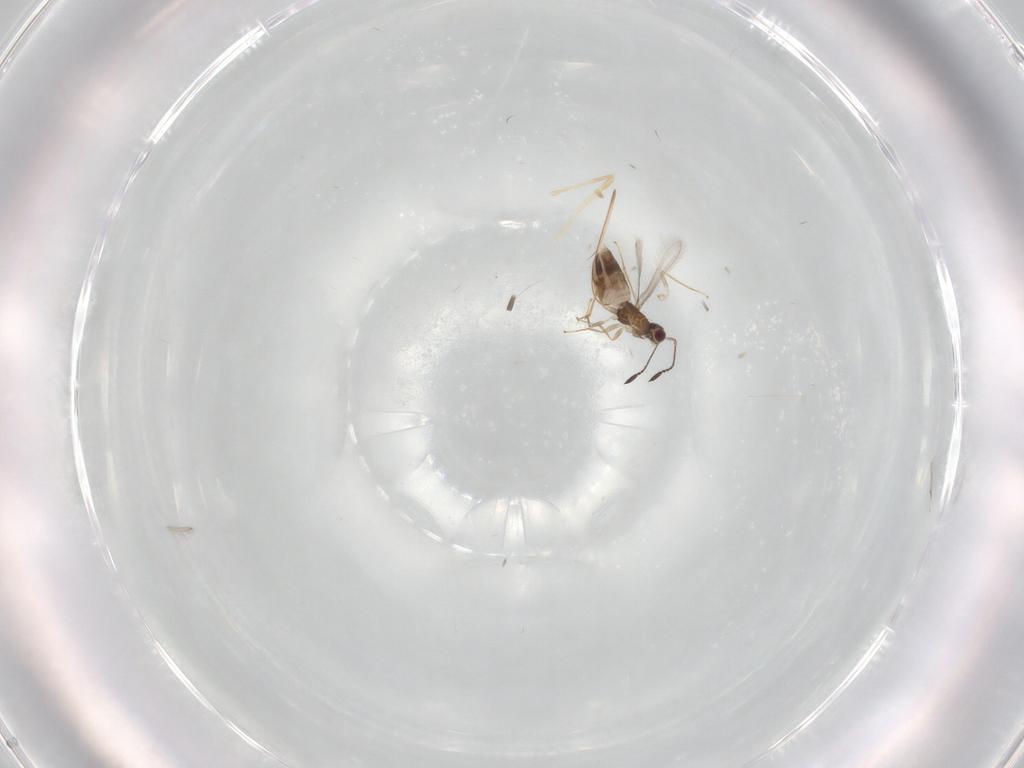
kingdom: Animalia
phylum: Arthropoda
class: Insecta
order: Hymenoptera
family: Mymaridae
